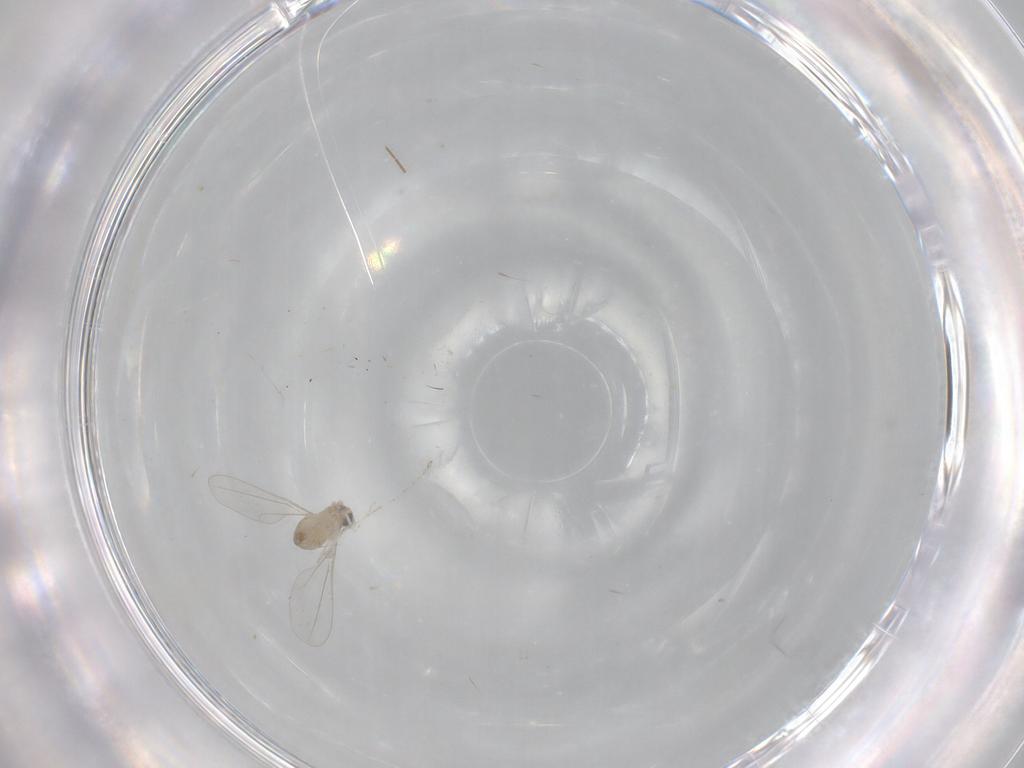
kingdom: Animalia
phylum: Arthropoda
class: Insecta
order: Diptera
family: Cecidomyiidae
